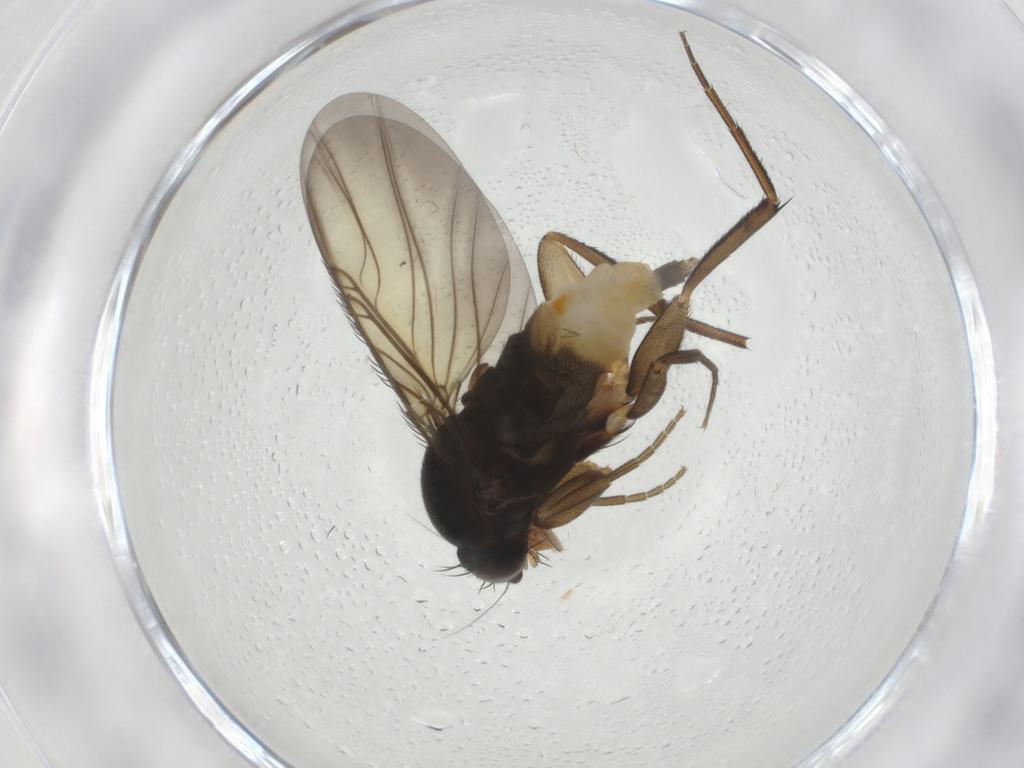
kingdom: Animalia
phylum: Arthropoda
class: Insecta
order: Diptera
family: Phoridae
